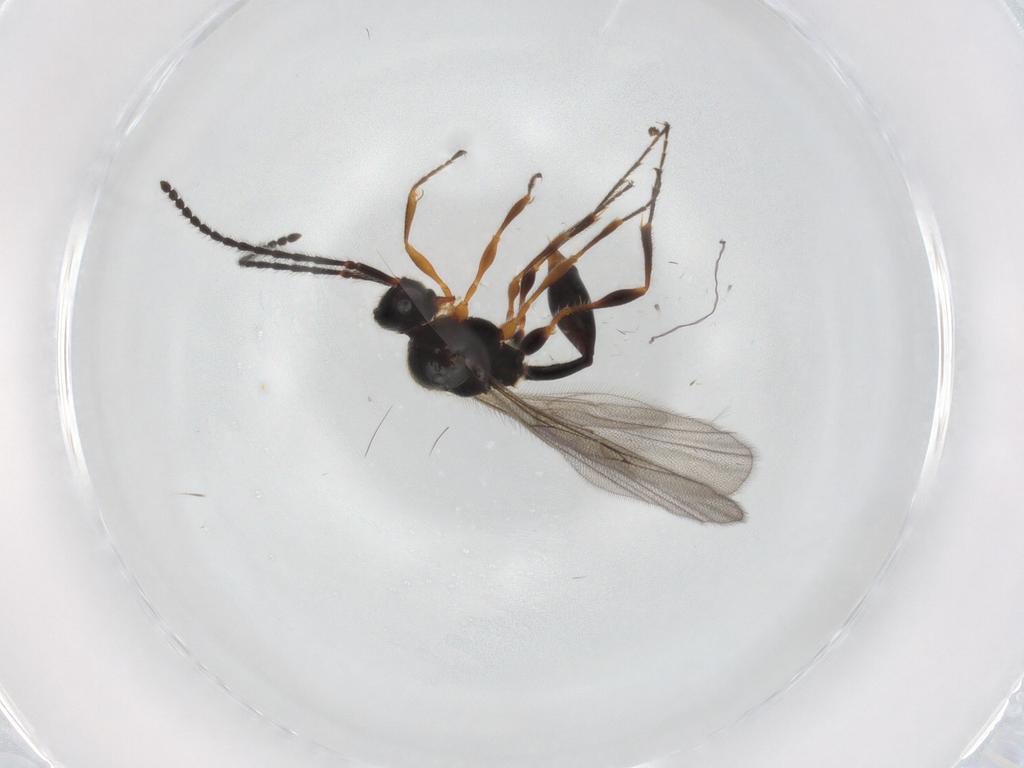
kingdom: Animalia
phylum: Arthropoda
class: Insecta
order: Hymenoptera
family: Diapriidae
